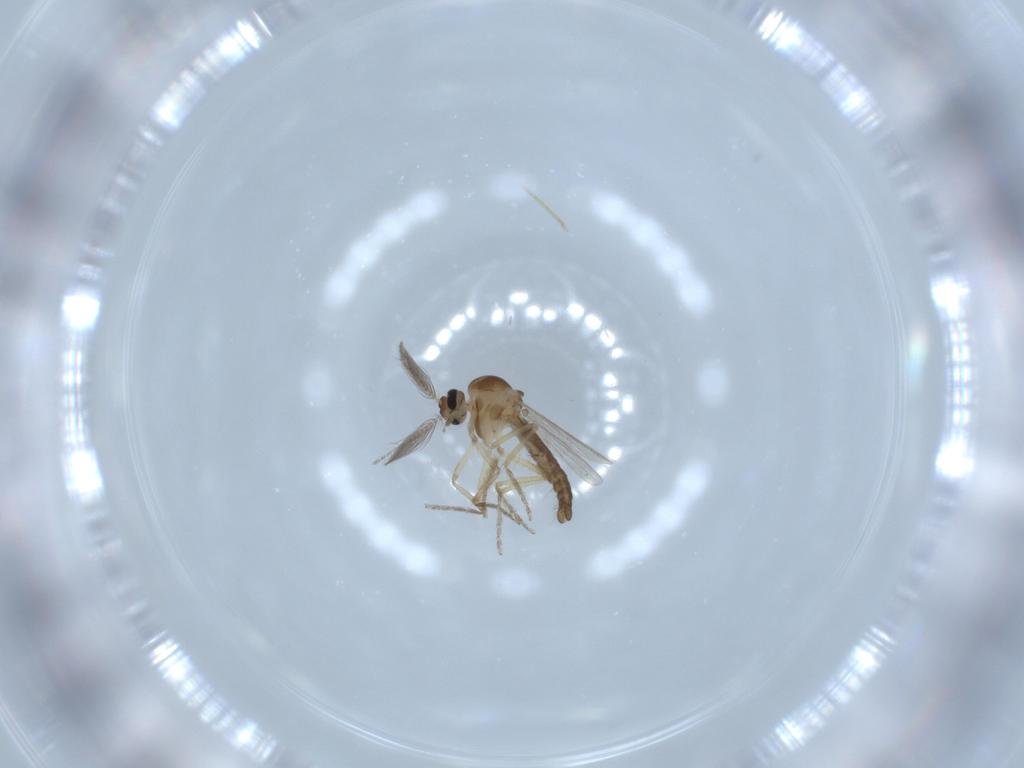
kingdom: Animalia
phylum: Arthropoda
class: Insecta
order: Diptera
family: Ceratopogonidae
